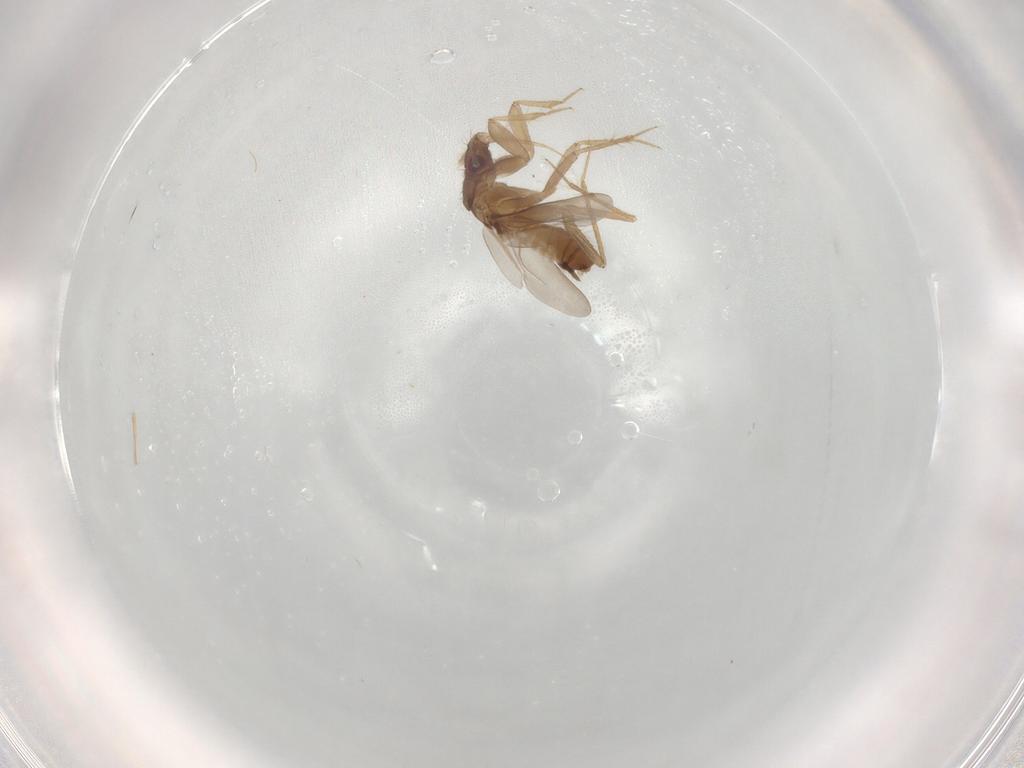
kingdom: Animalia
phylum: Arthropoda
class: Insecta
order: Hemiptera
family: Ceratocombidae
